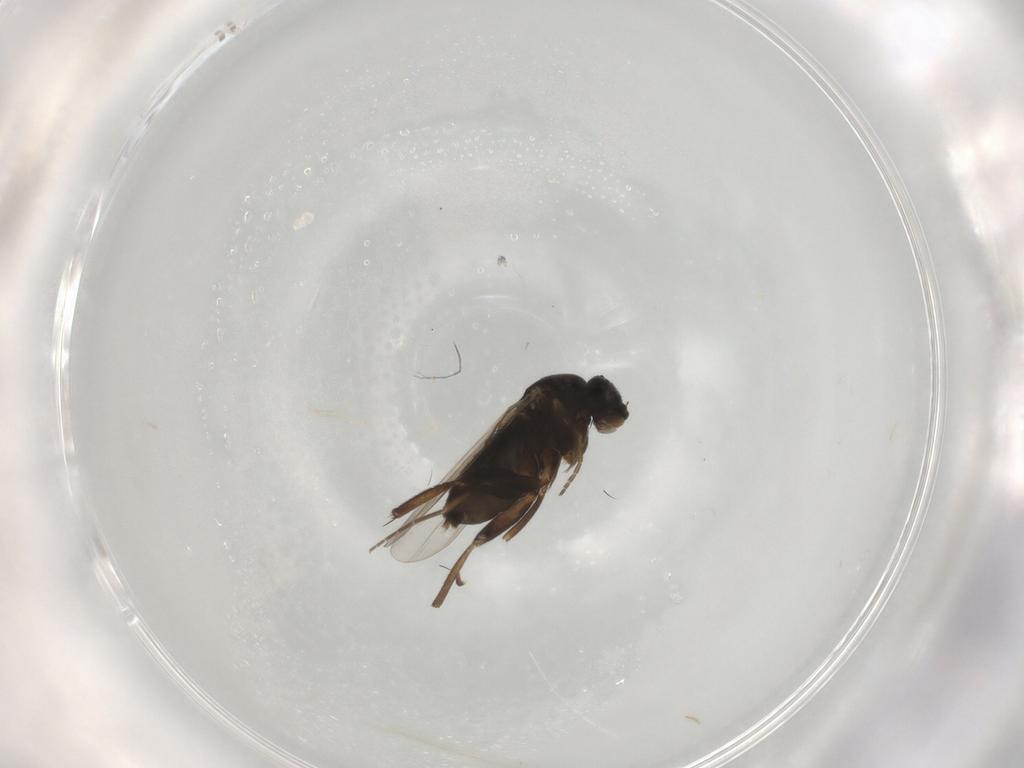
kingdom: Animalia
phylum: Arthropoda
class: Insecta
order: Diptera
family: Phoridae
